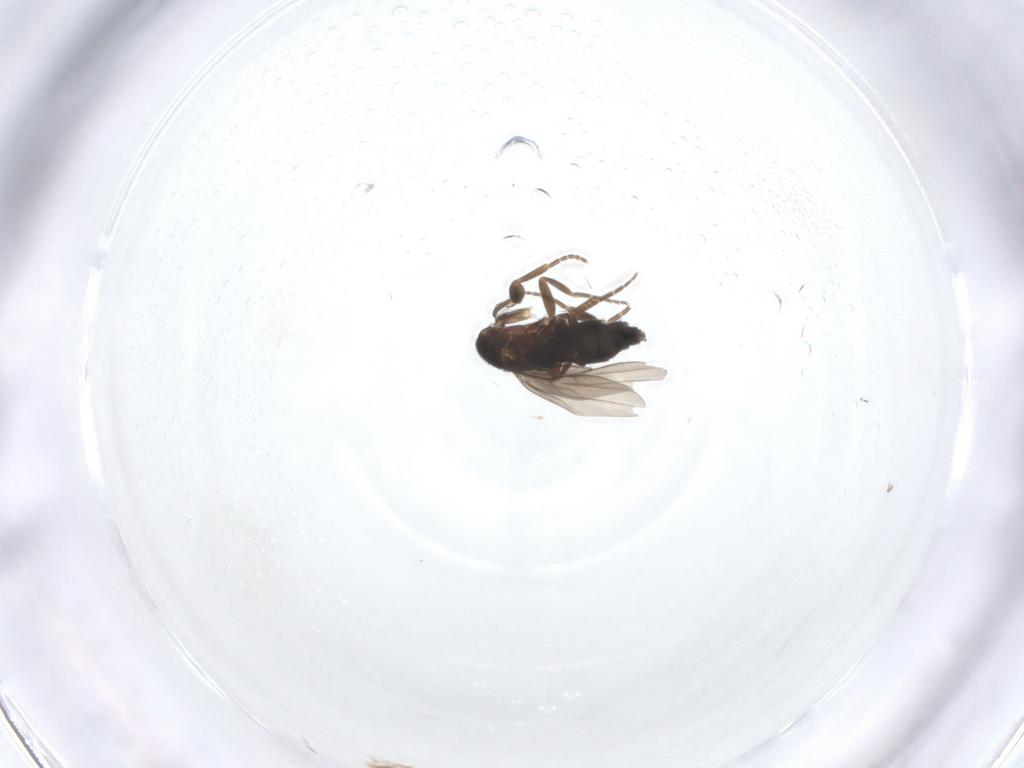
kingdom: Animalia
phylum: Arthropoda
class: Insecta
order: Diptera
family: Phoridae
